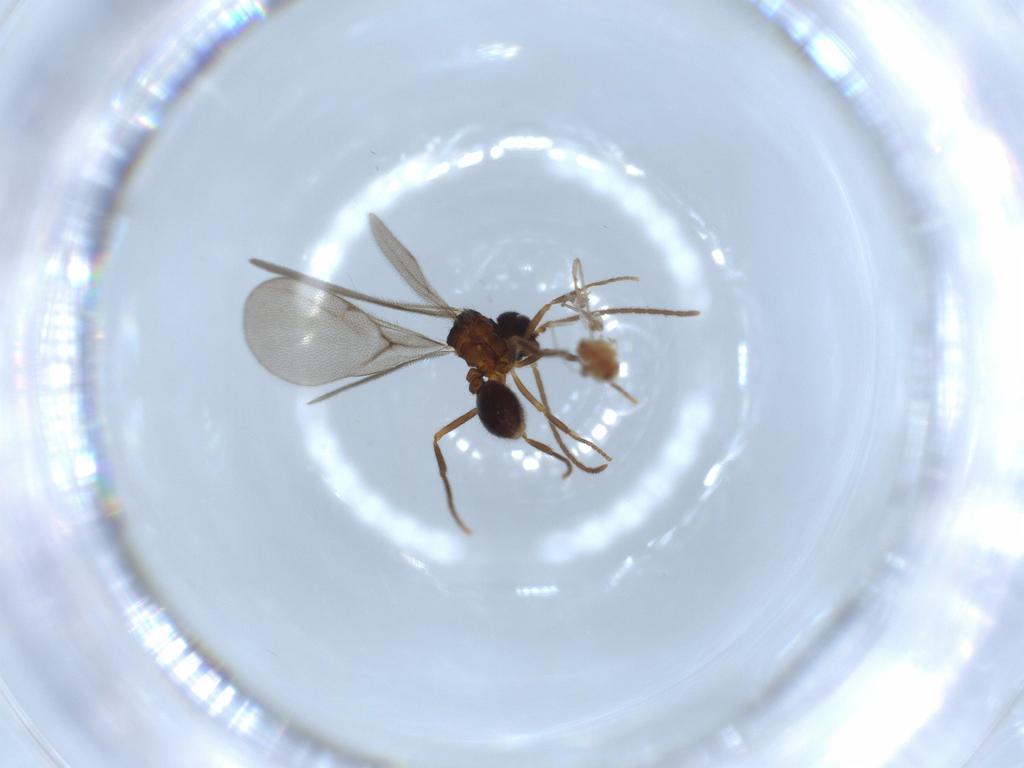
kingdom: Animalia
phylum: Arthropoda
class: Insecta
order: Hymenoptera
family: Formicidae
